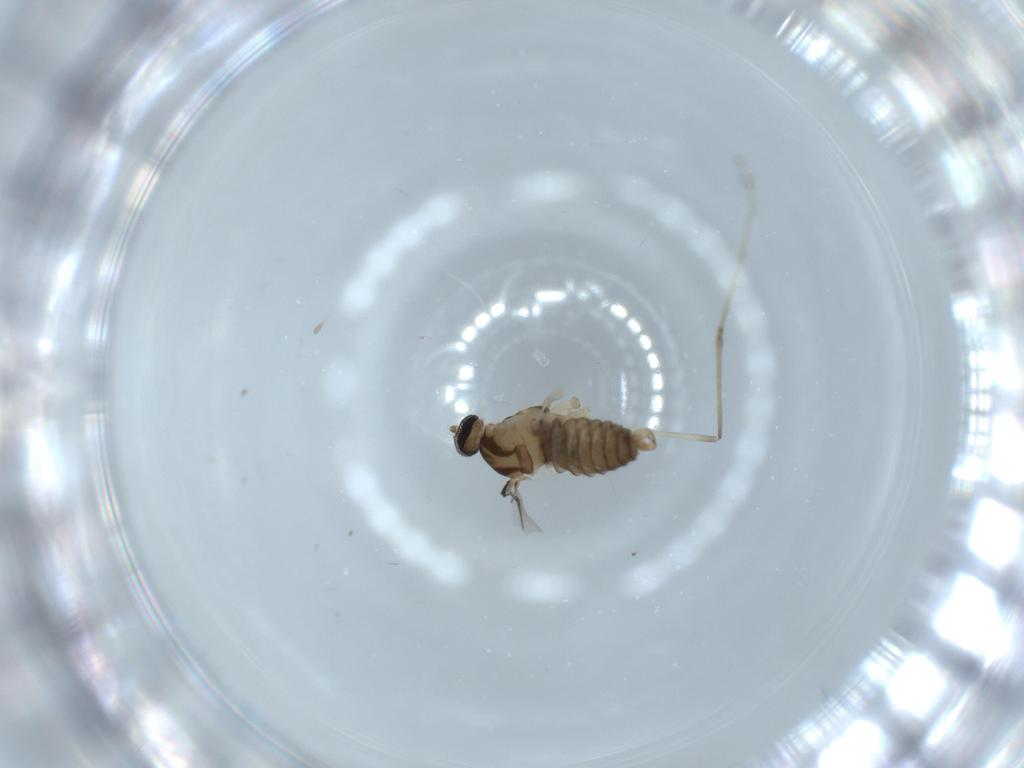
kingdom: Animalia
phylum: Arthropoda
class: Insecta
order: Diptera
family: Cecidomyiidae
